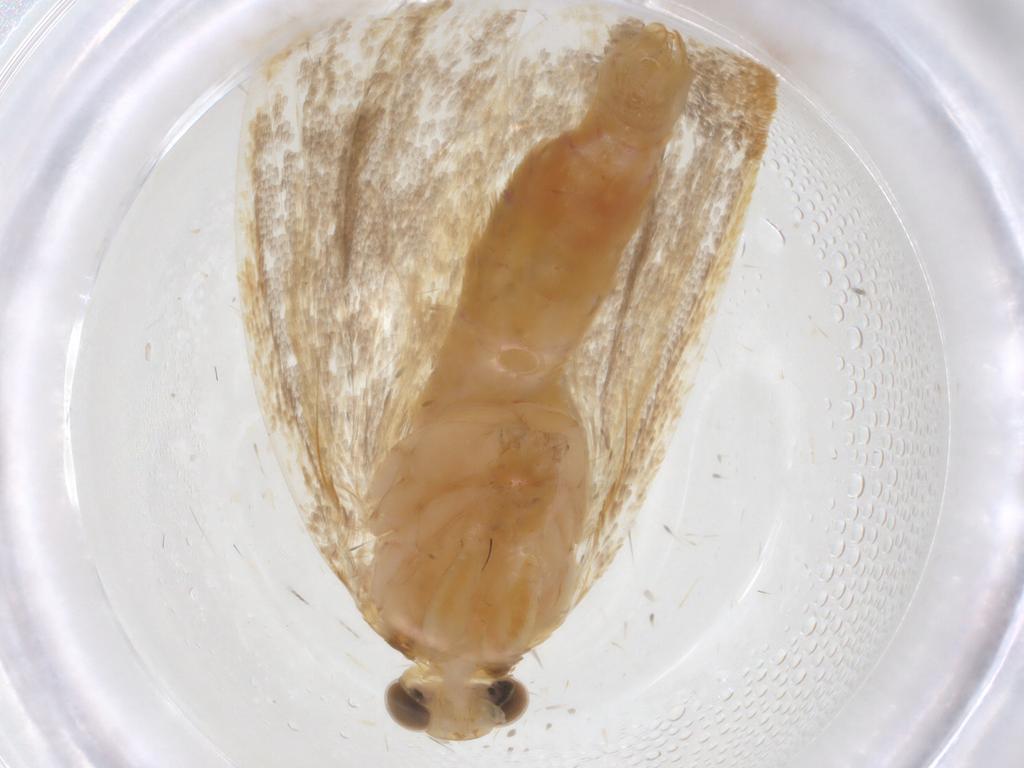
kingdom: Animalia
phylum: Arthropoda
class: Insecta
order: Lepidoptera
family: Lecithoceridae
